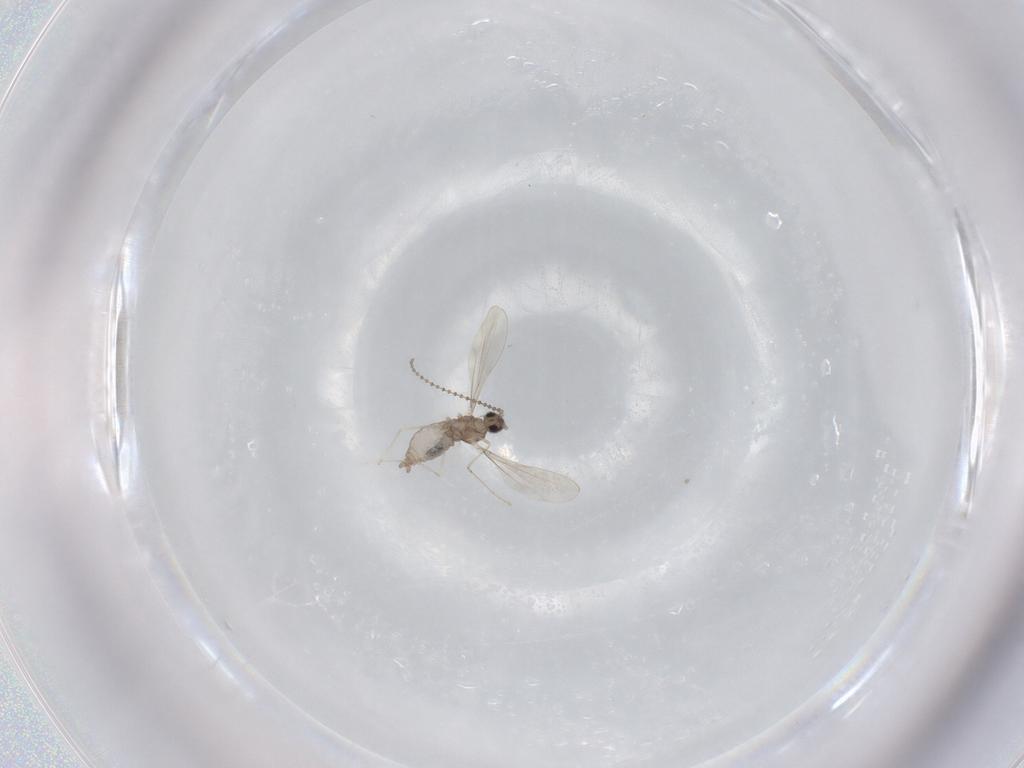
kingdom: Animalia
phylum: Arthropoda
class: Insecta
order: Diptera
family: Cecidomyiidae
